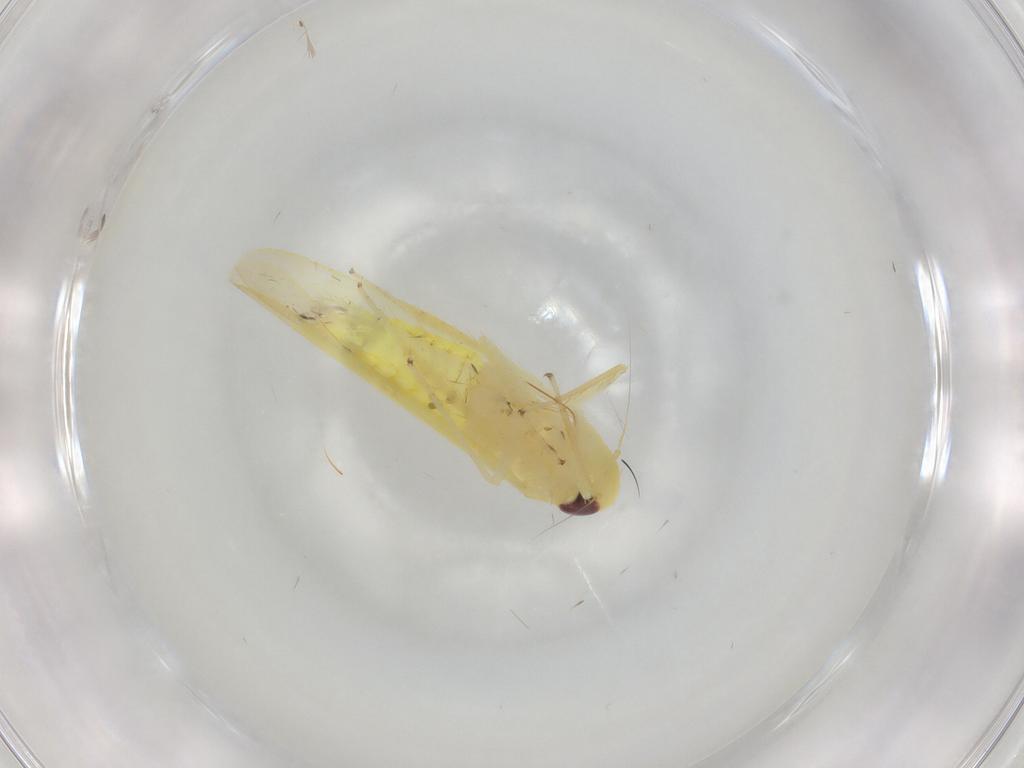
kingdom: Animalia
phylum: Arthropoda
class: Insecta
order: Hemiptera
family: Cicadellidae
